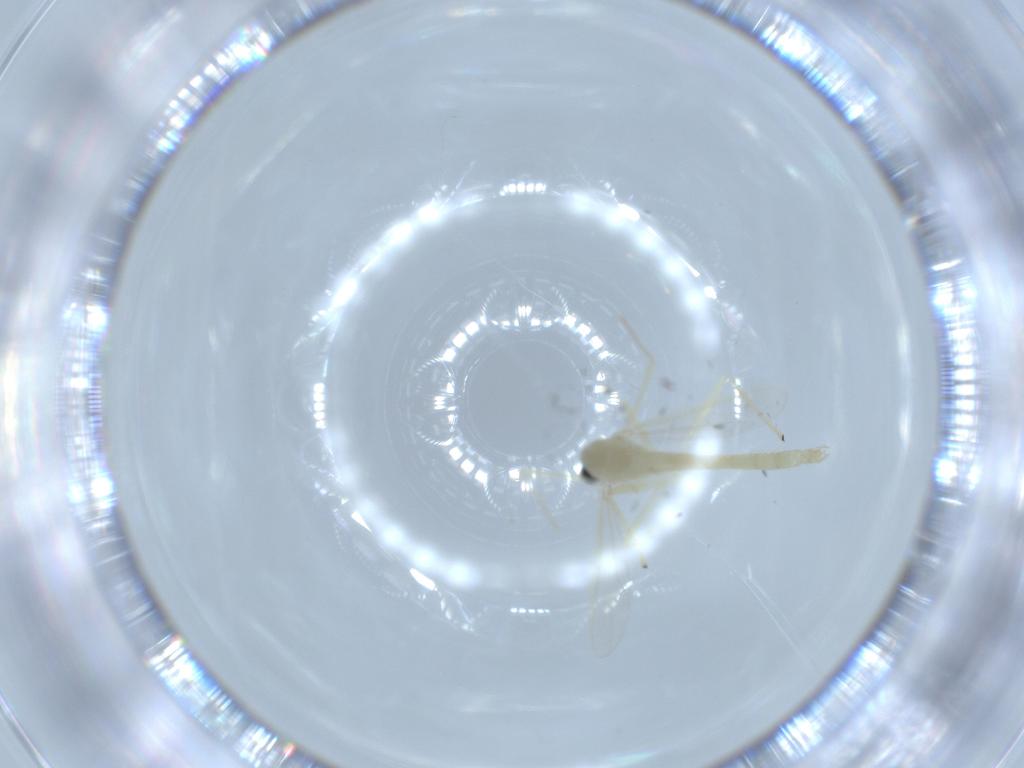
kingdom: Animalia
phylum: Arthropoda
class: Insecta
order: Diptera
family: Chironomidae
